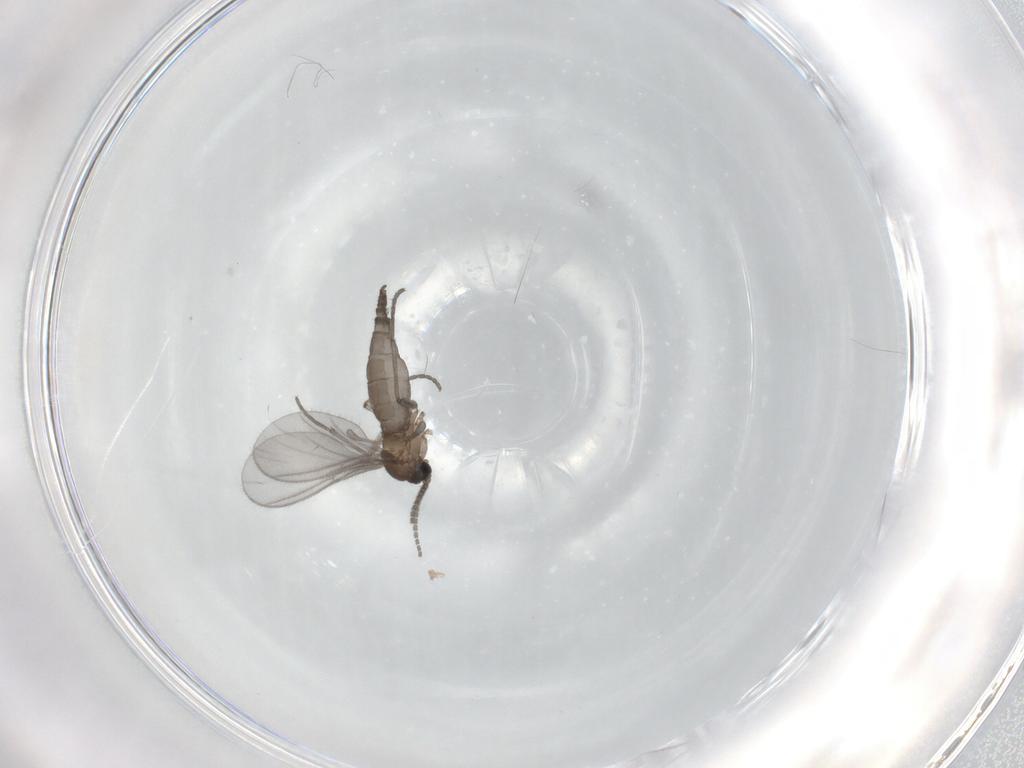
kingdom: Animalia
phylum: Arthropoda
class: Insecta
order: Diptera
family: Sciaridae
